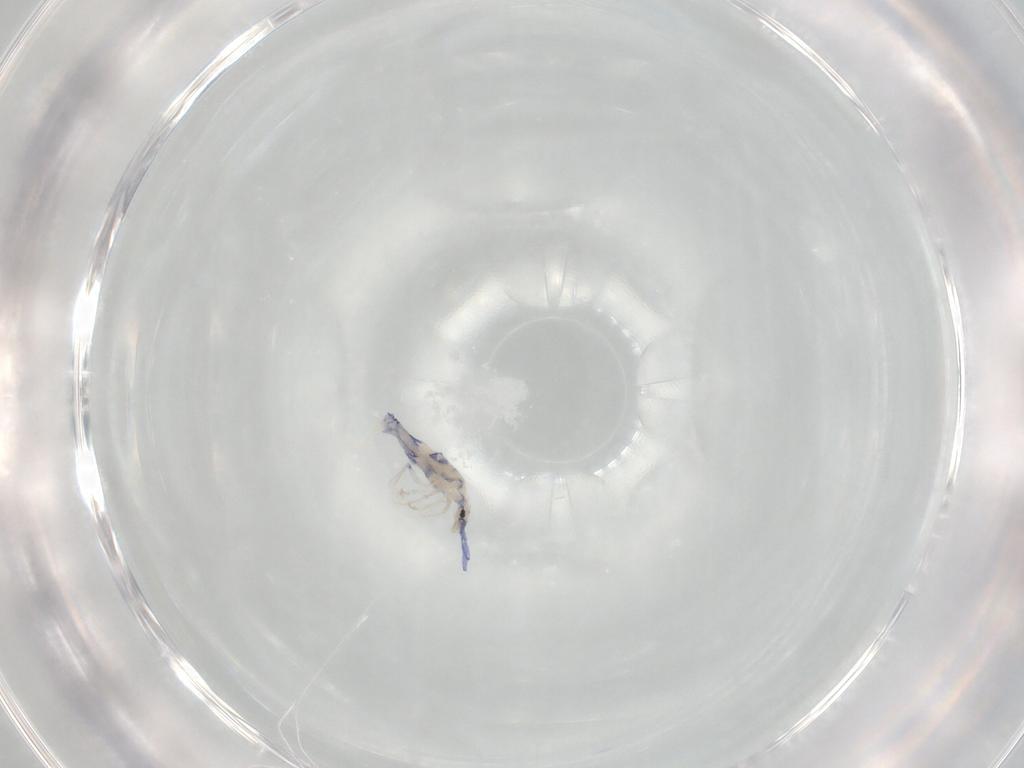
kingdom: Animalia
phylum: Arthropoda
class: Collembola
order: Entomobryomorpha
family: Entomobryidae
